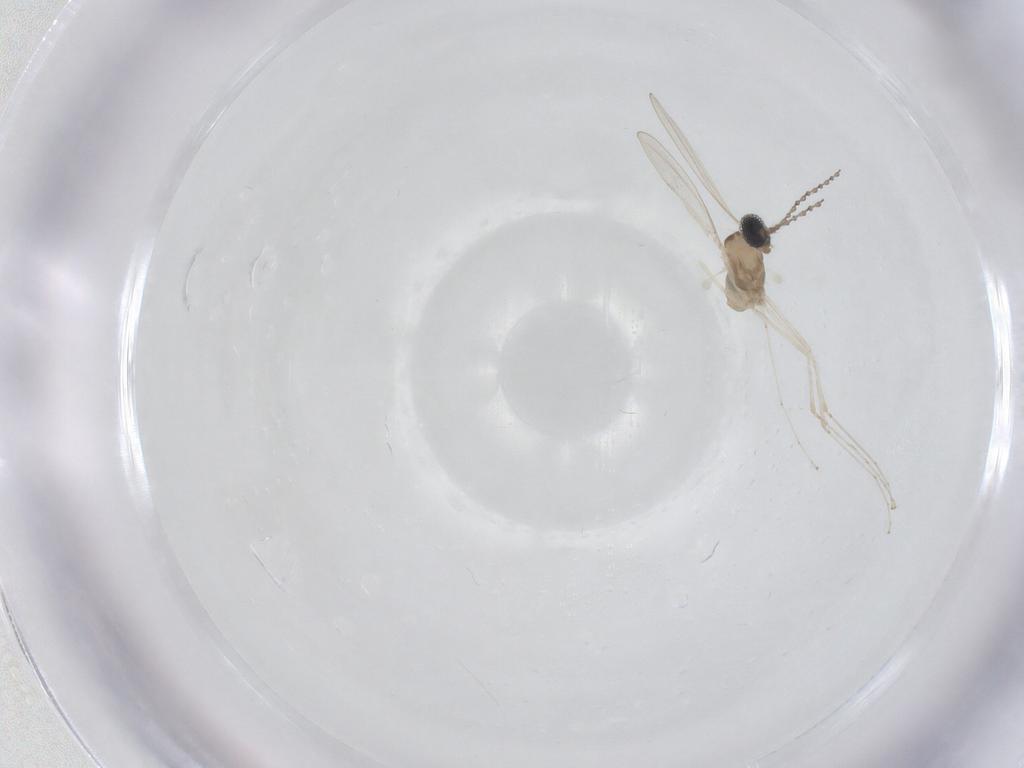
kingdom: Animalia
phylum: Arthropoda
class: Insecta
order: Diptera
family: Cecidomyiidae
